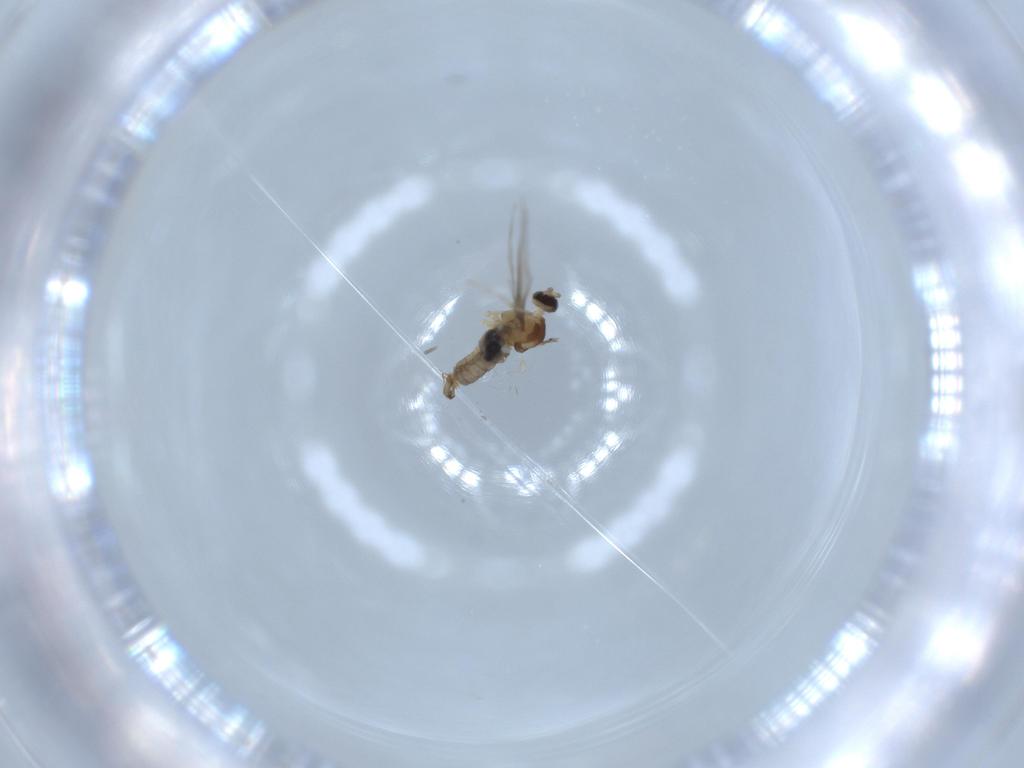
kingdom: Animalia
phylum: Arthropoda
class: Insecta
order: Diptera
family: Cecidomyiidae
